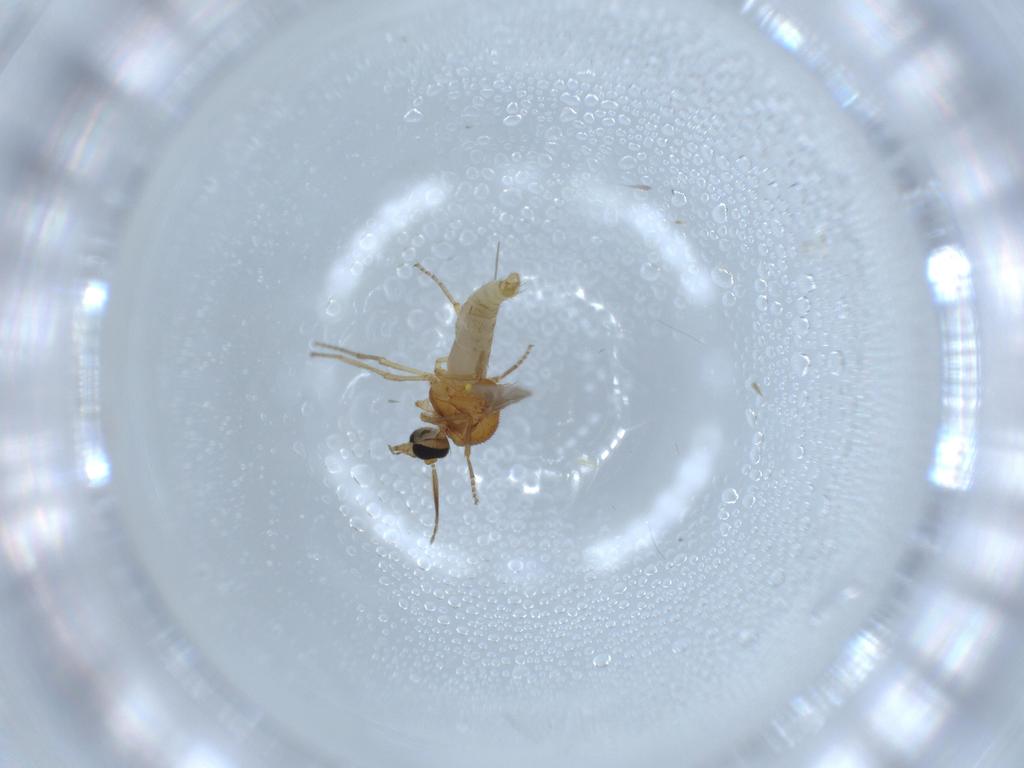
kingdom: Animalia
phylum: Arthropoda
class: Insecta
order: Diptera
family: Ceratopogonidae
